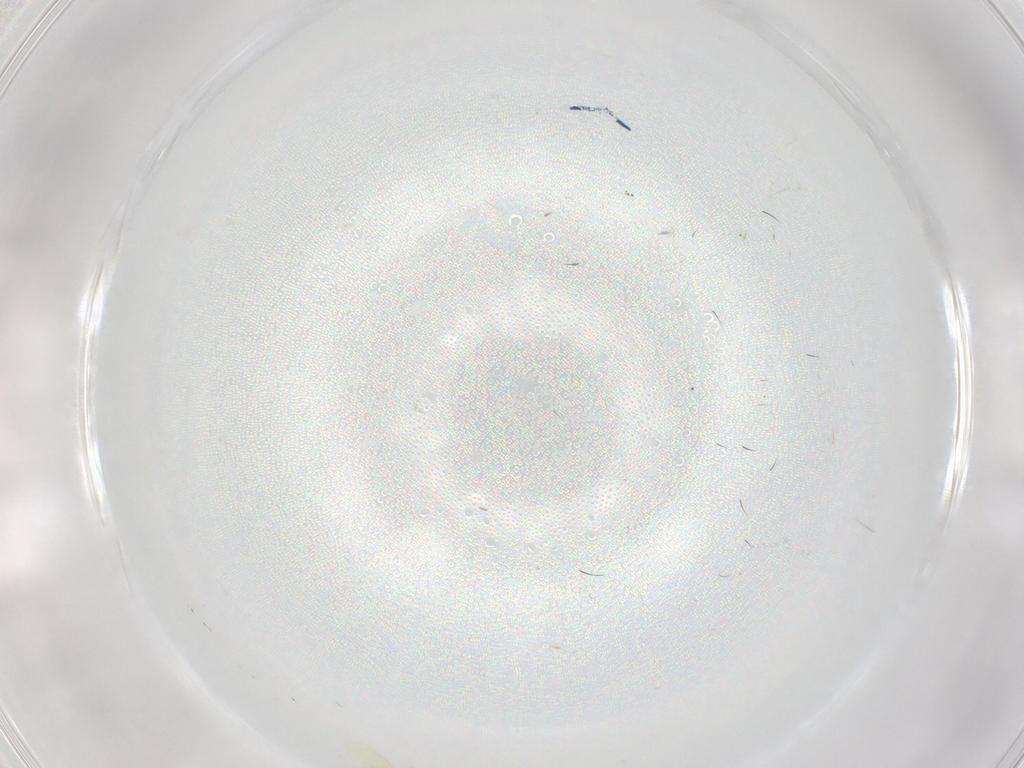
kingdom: Animalia
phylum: Arthropoda
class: Insecta
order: Hemiptera
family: Aleyrodidae
